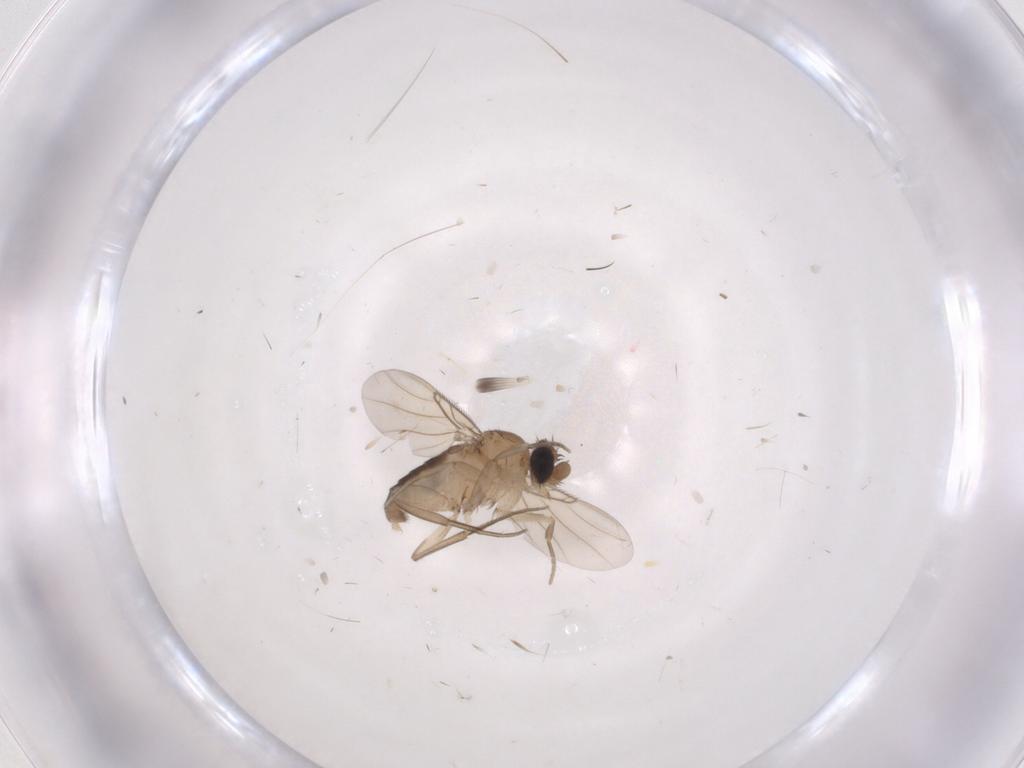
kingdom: Animalia
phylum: Arthropoda
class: Insecta
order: Diptera
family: Phoridae
